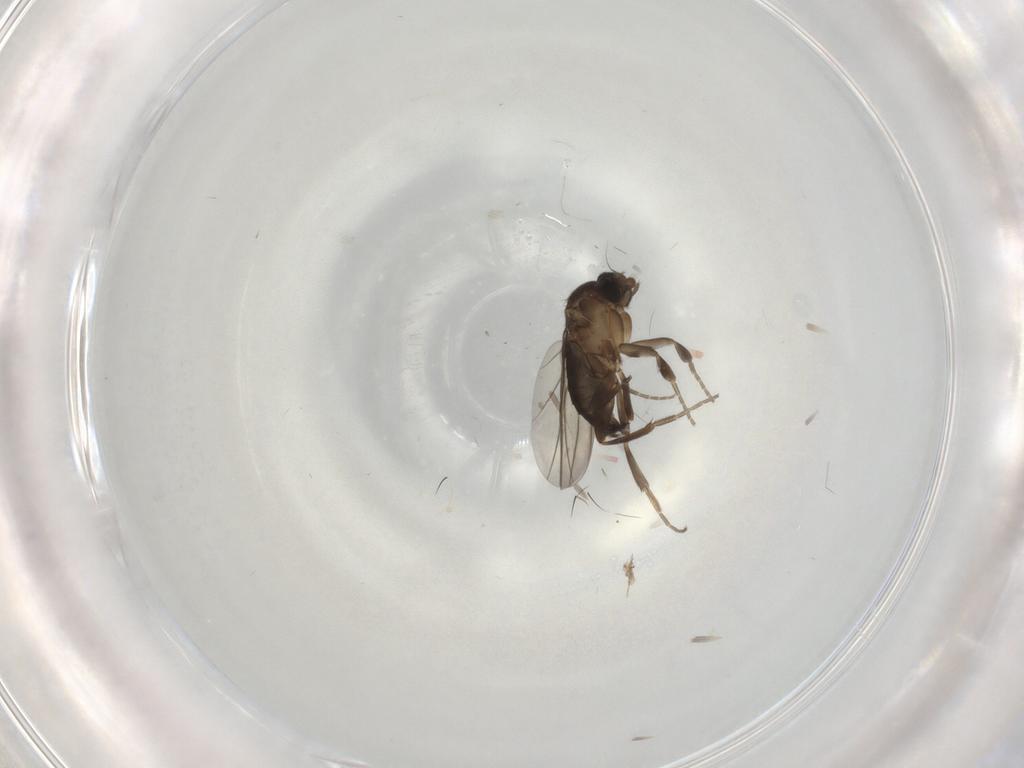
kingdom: Animalia
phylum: Arthropoda
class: Insecta
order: Diptera
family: Phoridae
